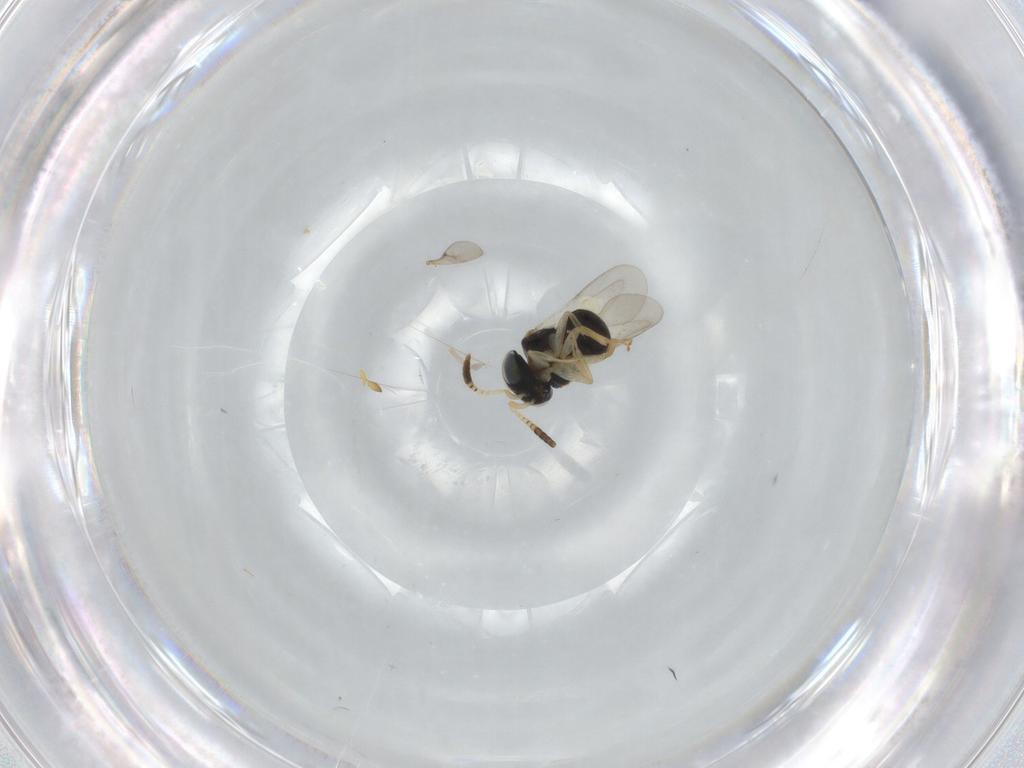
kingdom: Animalia
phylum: Arthropoda
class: Insecta
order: Hymenoptera
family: Scelionidae
